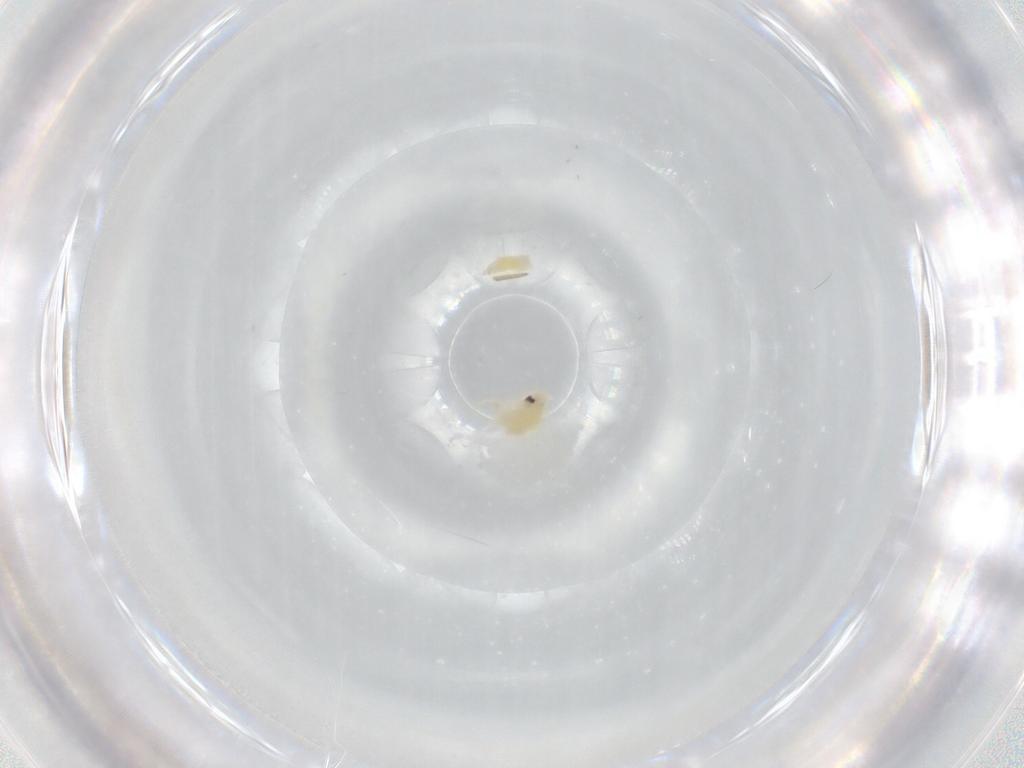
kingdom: Animalia
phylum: Arthropoda
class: Insecta
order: Hemiptera
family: Aleyrodidae
